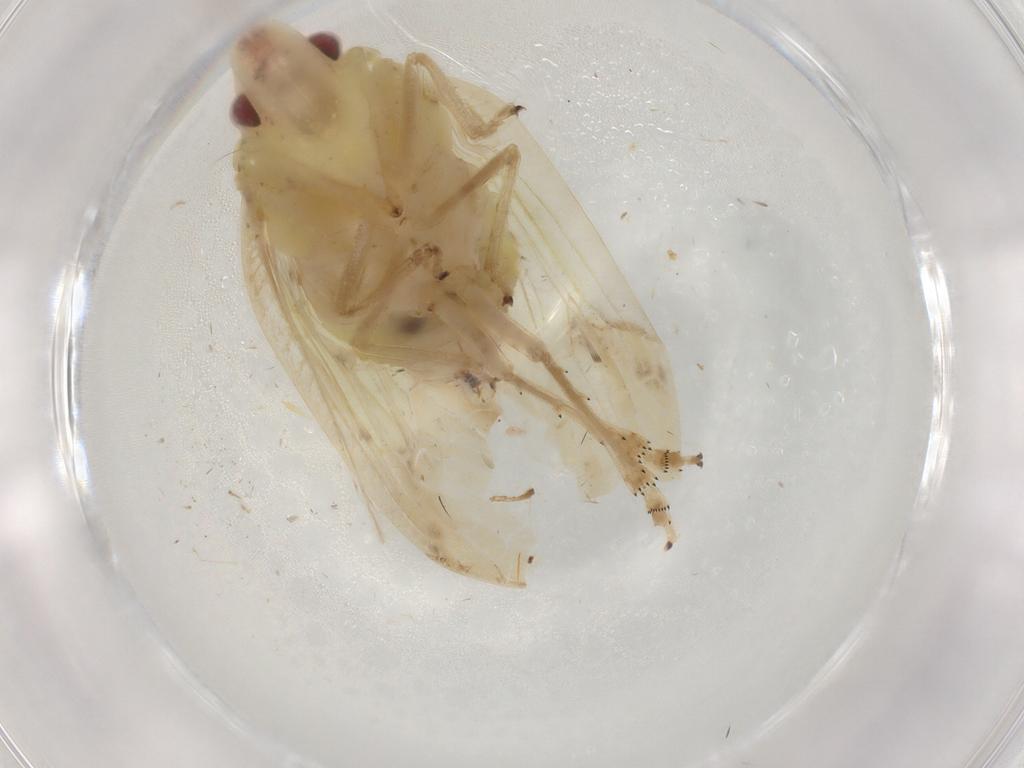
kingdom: Animalia
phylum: Arthropoda
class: Insecta
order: Hemiptera
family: Tropiduchidae
